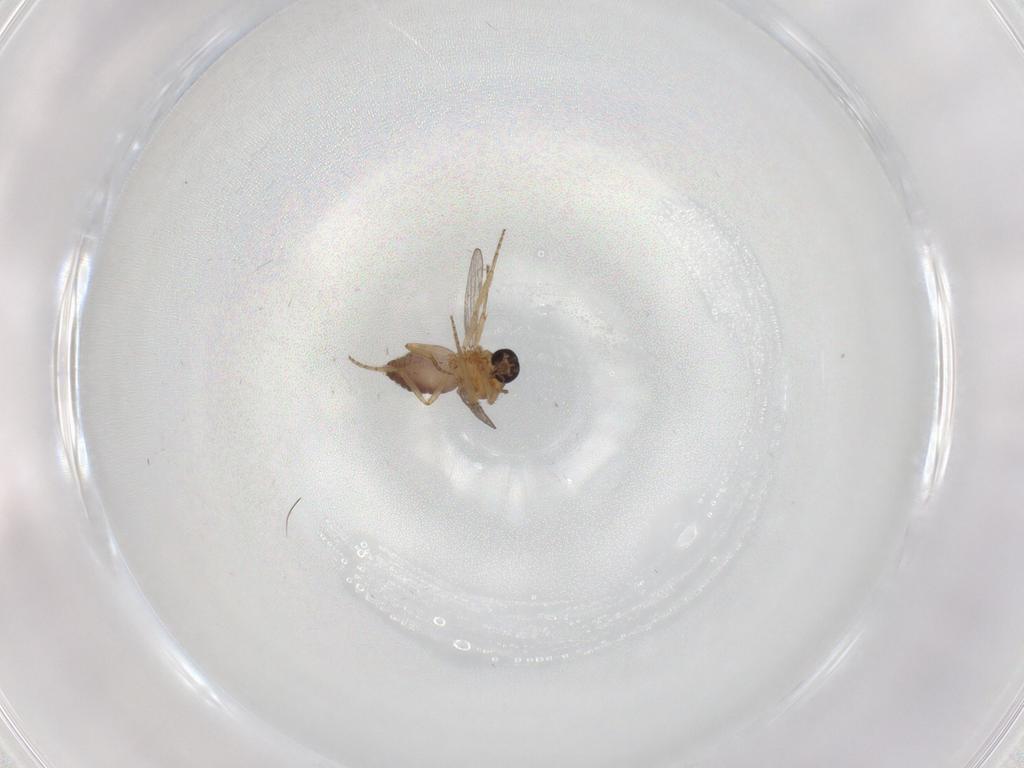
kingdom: Animalia
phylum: Arthropoda
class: Insecta
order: Diptera
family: Ceratopogonidae
